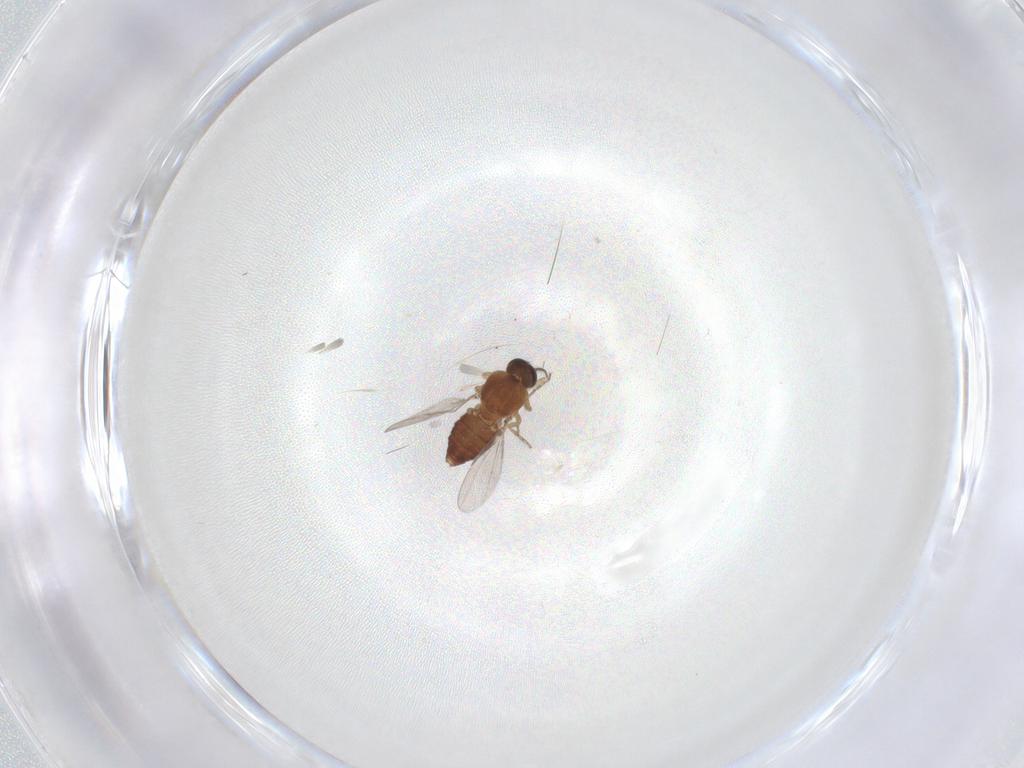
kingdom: Animalia
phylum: Arthropoda
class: Insecta
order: Diptera
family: Ceratopogonidae
